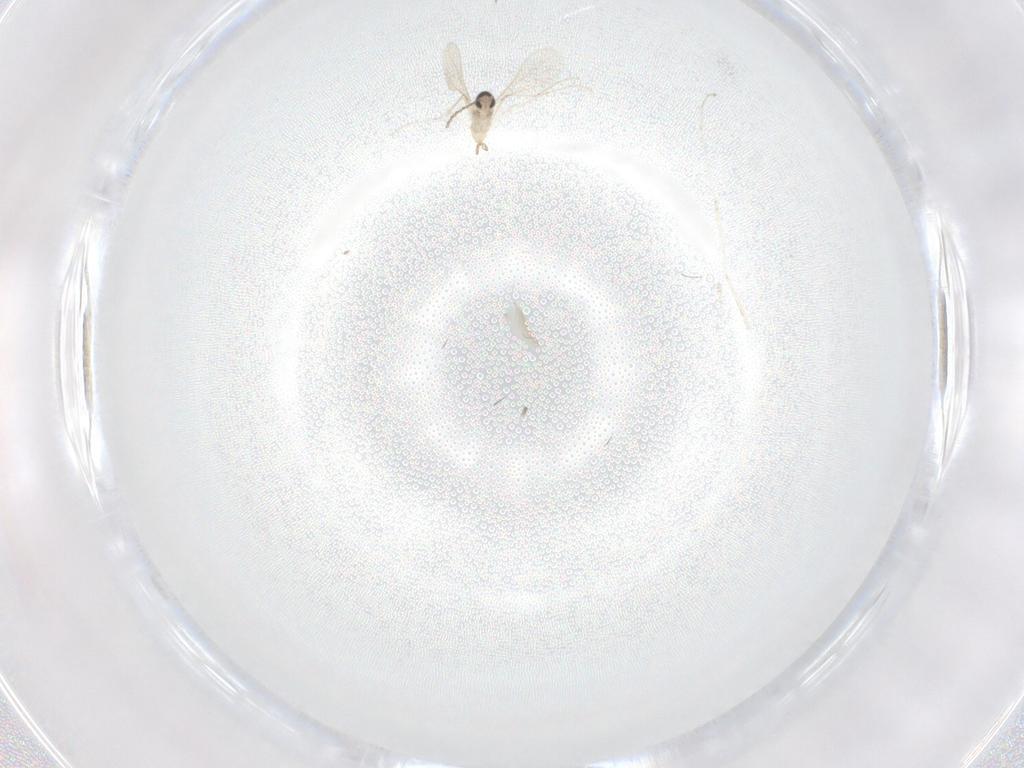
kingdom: Animalia
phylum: Arthropoda
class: Insecta
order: Diptera
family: Cecidomyiidae
